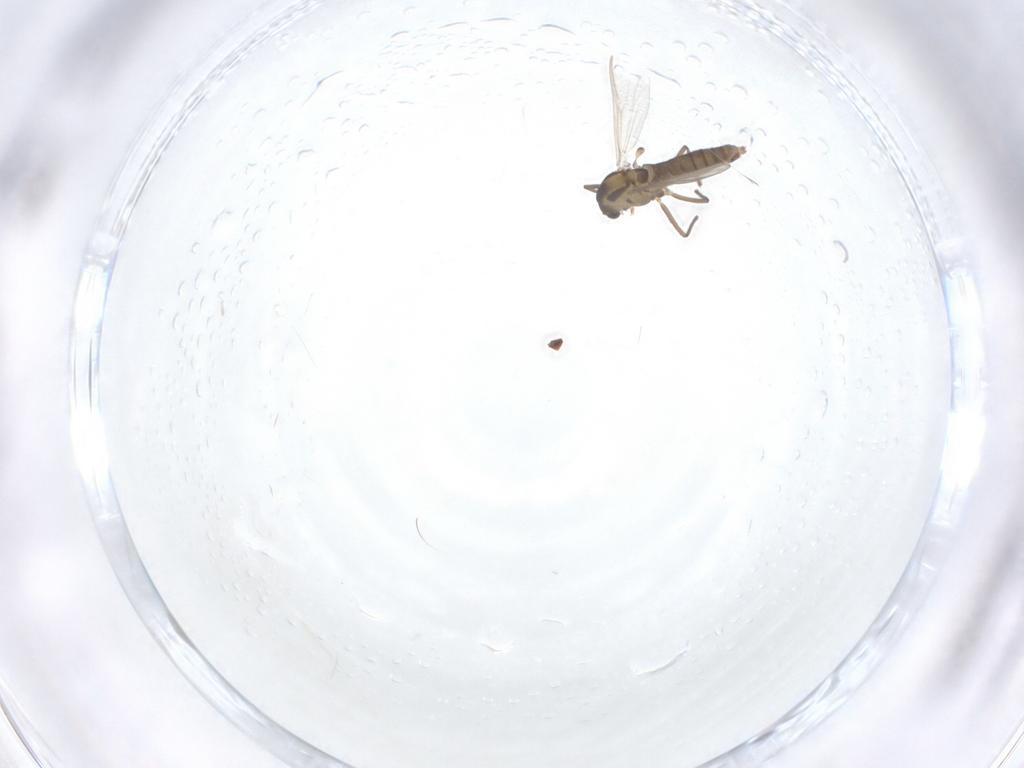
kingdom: Animalia
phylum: Arthropoda
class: Insecta
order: Diptera
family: Chironomidae
